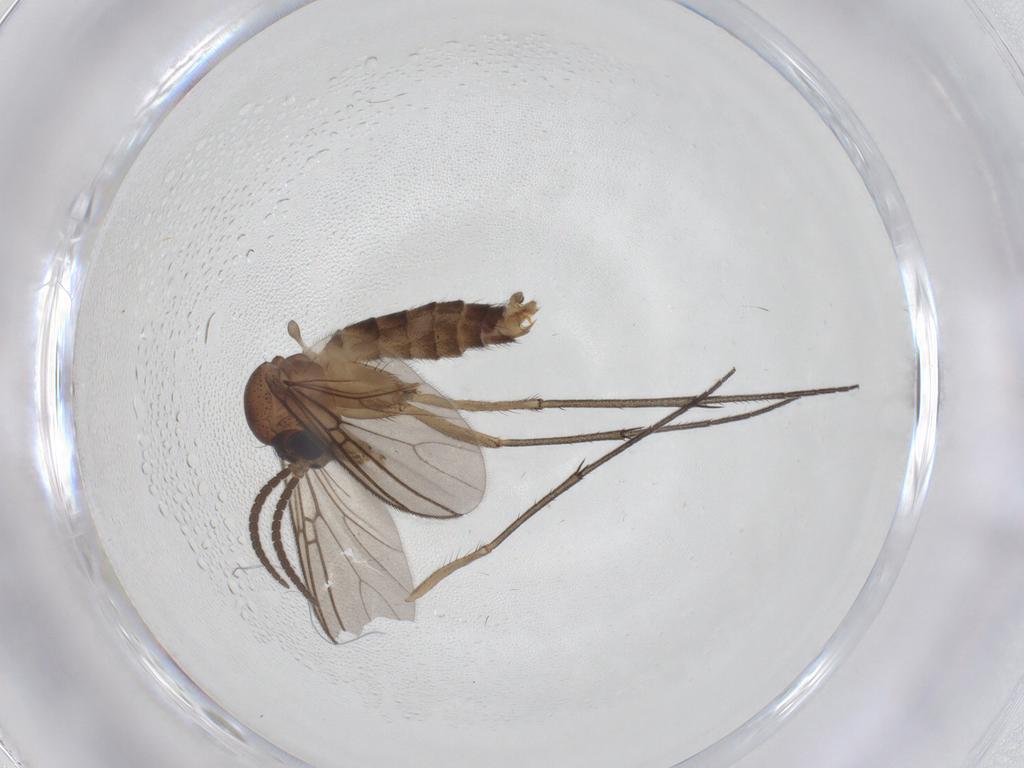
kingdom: Animalia
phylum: Arthropoda
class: Insecta
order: Diptera
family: Mycetophilidae
